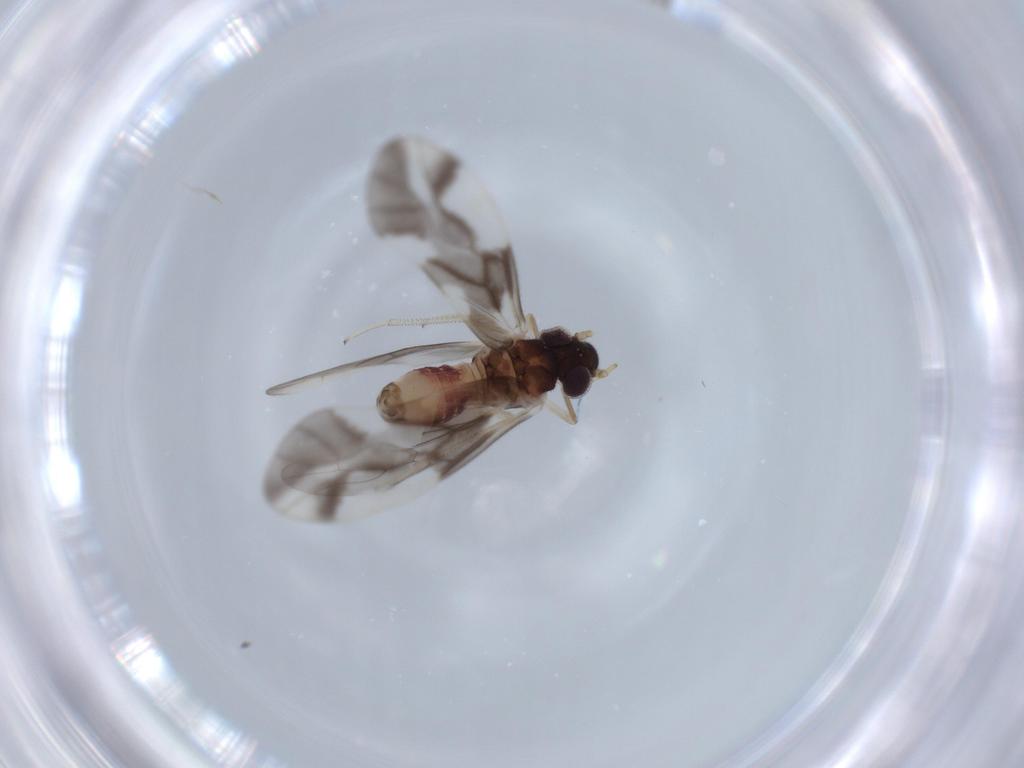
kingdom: Animalia
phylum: Arthropoda
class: Insecta
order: Psocodea
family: Caeciliusidae
